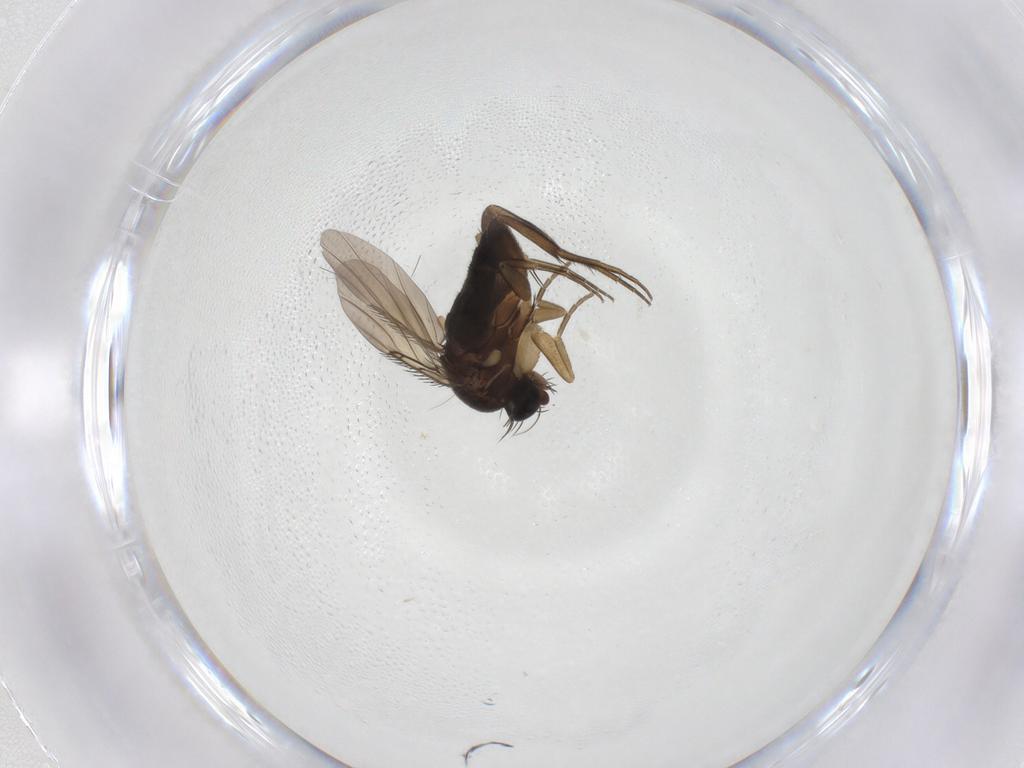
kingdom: Animalia
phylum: Arthropoda
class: Insecta
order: Diptera
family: Phoridae
